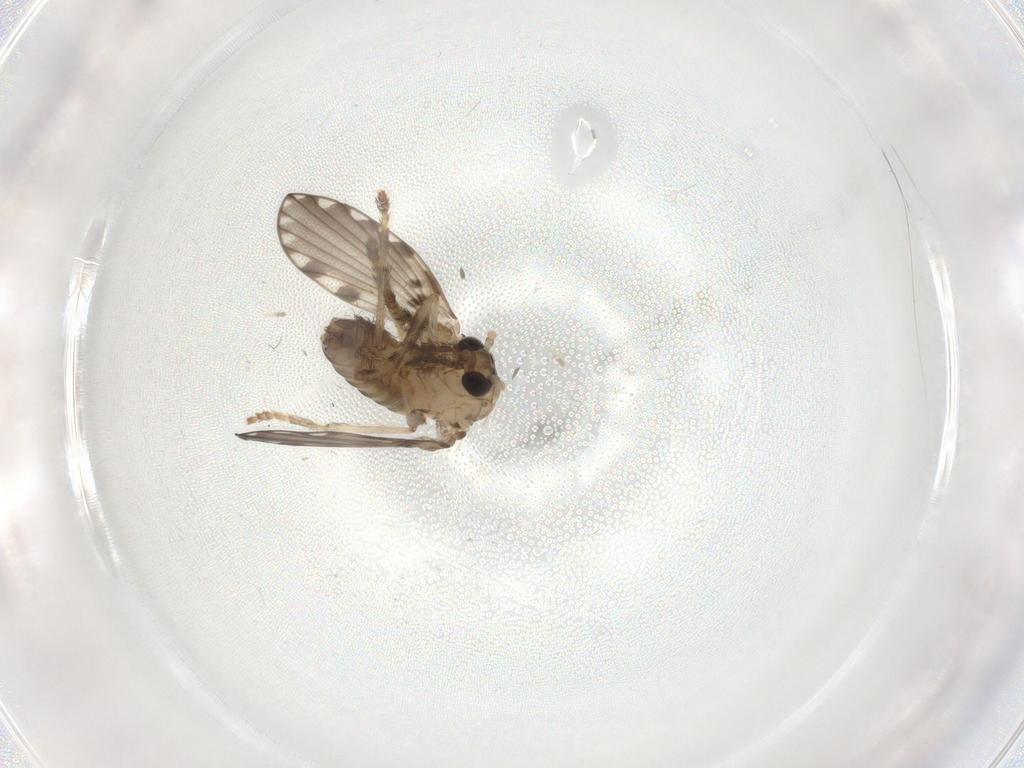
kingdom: Animalia
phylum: Arthropoda
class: Insecta
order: Diptera
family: Psychodidae
